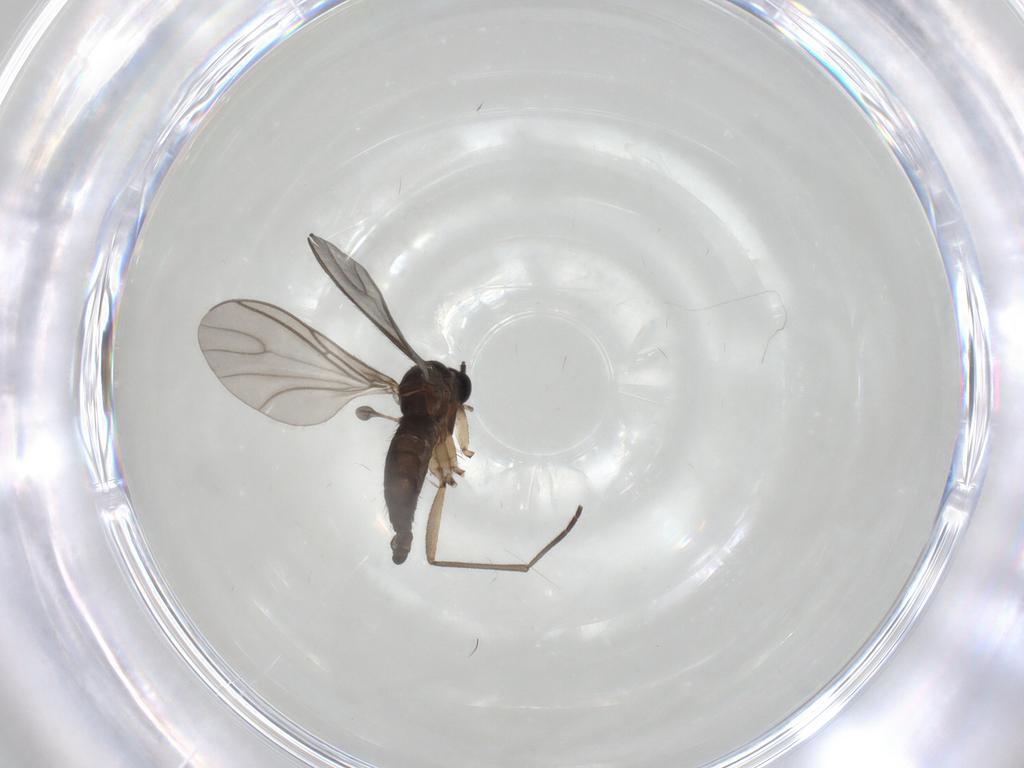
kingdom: Animalia
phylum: Arthropoda
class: Insecta
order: Diptera
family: Sciaridae
